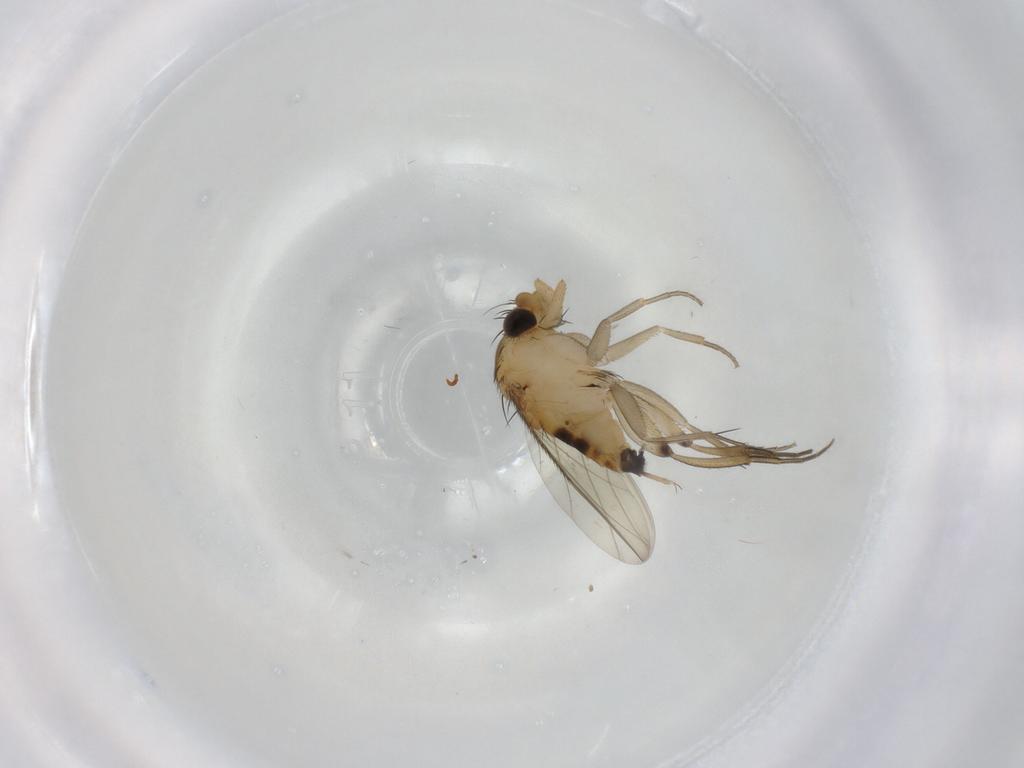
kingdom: Animalia
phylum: Arthropoda
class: Insecta
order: Diptera
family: Phoridae
